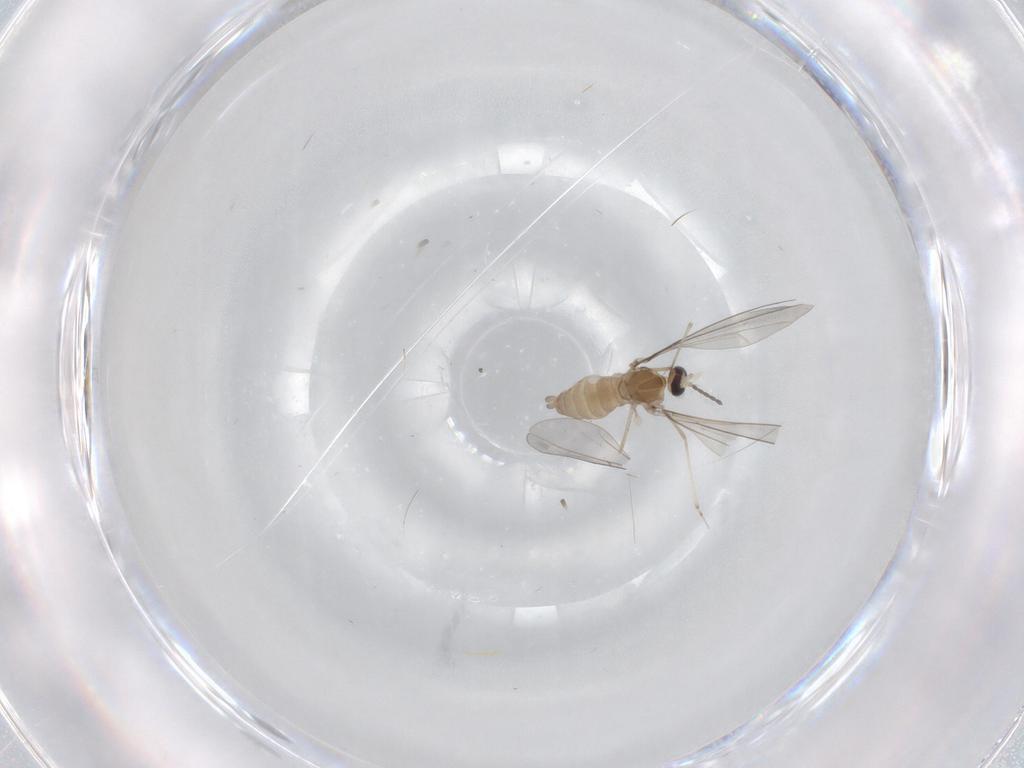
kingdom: Animalia
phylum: Arthropoda
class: Insecta
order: Diptera
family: Cecidomyiidae
